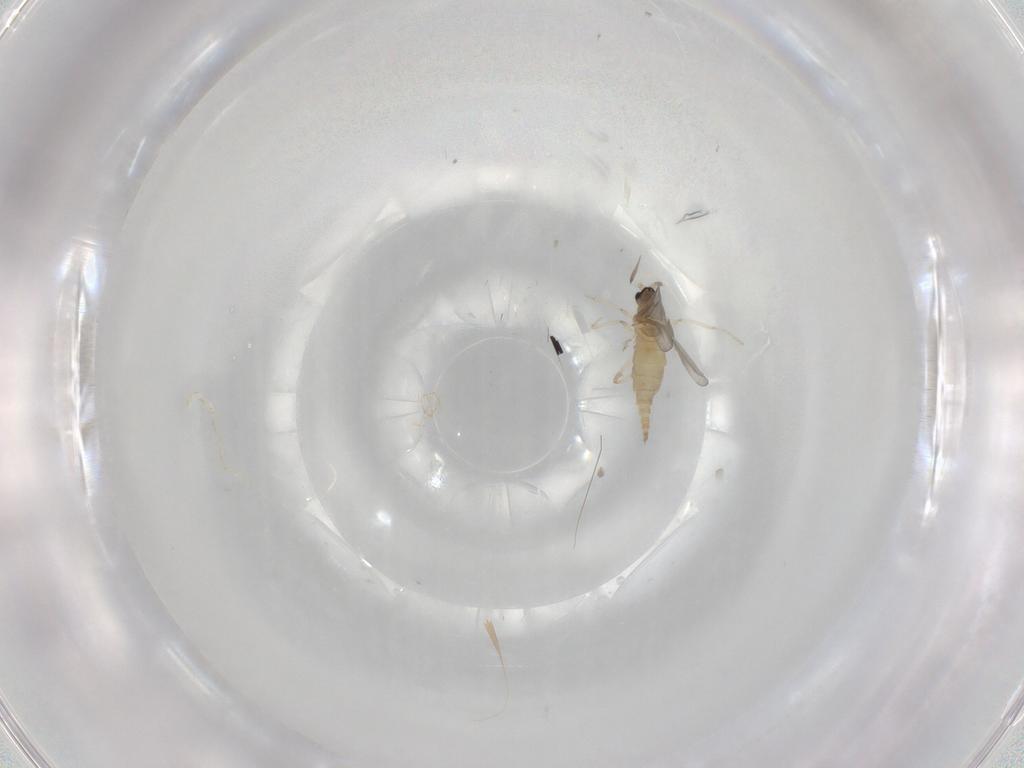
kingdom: Animalia
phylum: Arthropoda
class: Insecta
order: Diptera
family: Cecidomyiidae
